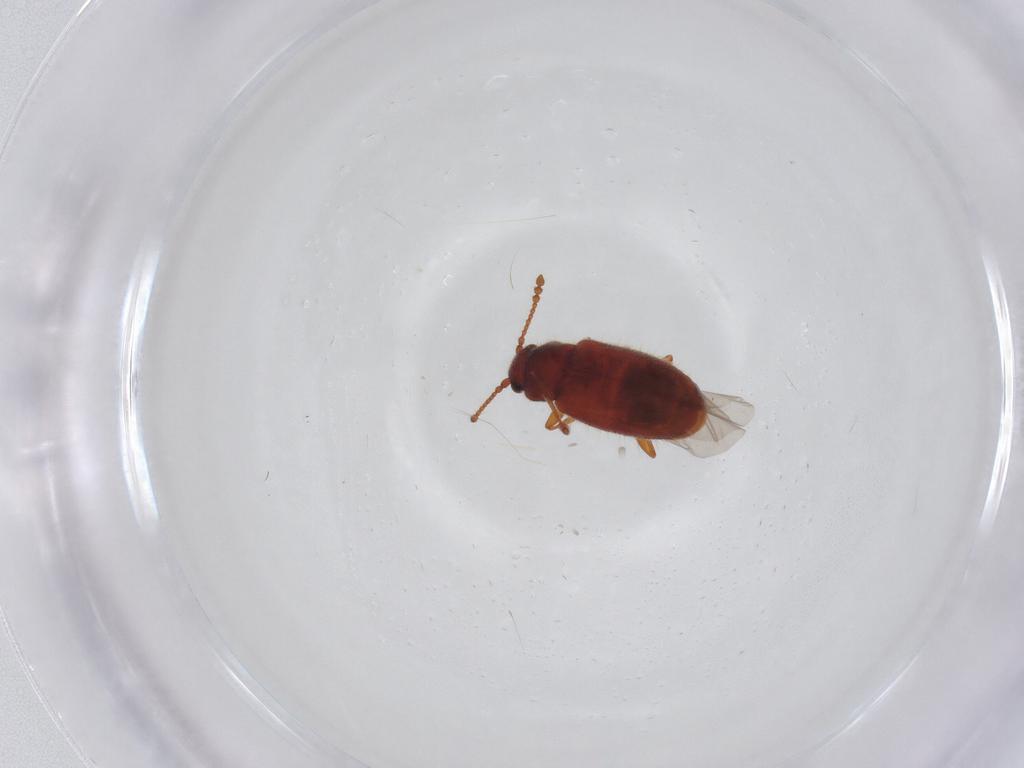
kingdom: Animalia
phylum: Arthropoda
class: Insecta
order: Coleoptera
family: Cryptophagidae
